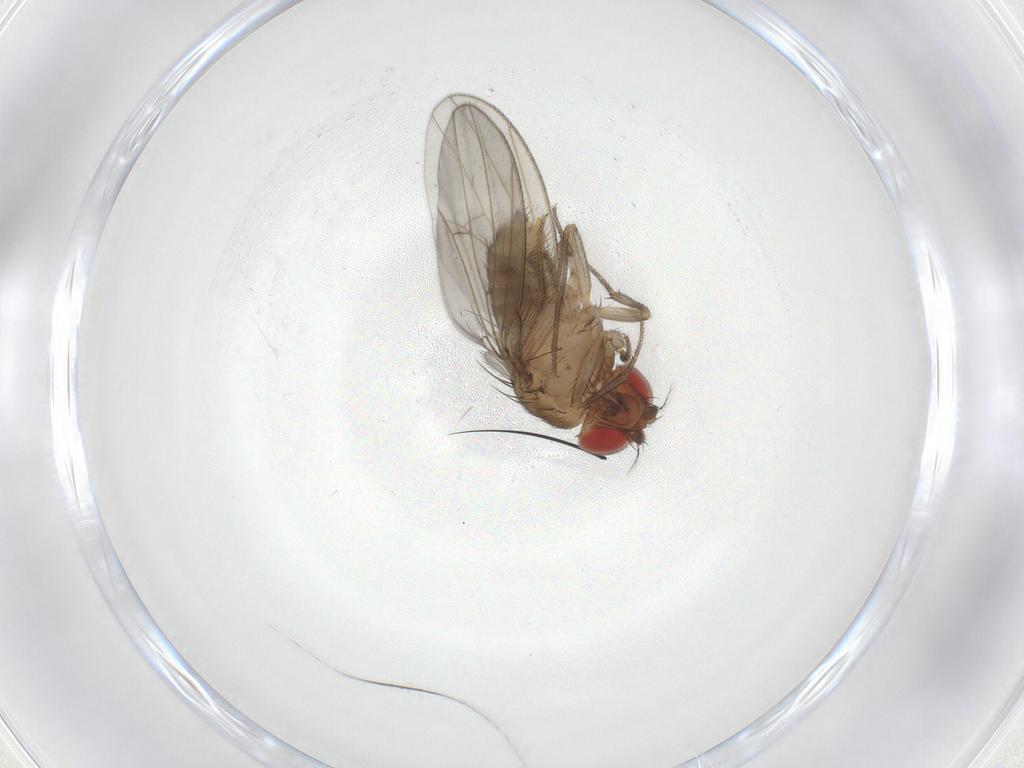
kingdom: Animalia
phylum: Arthropoda
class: Insecta
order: Diptera
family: Drosophilidae
